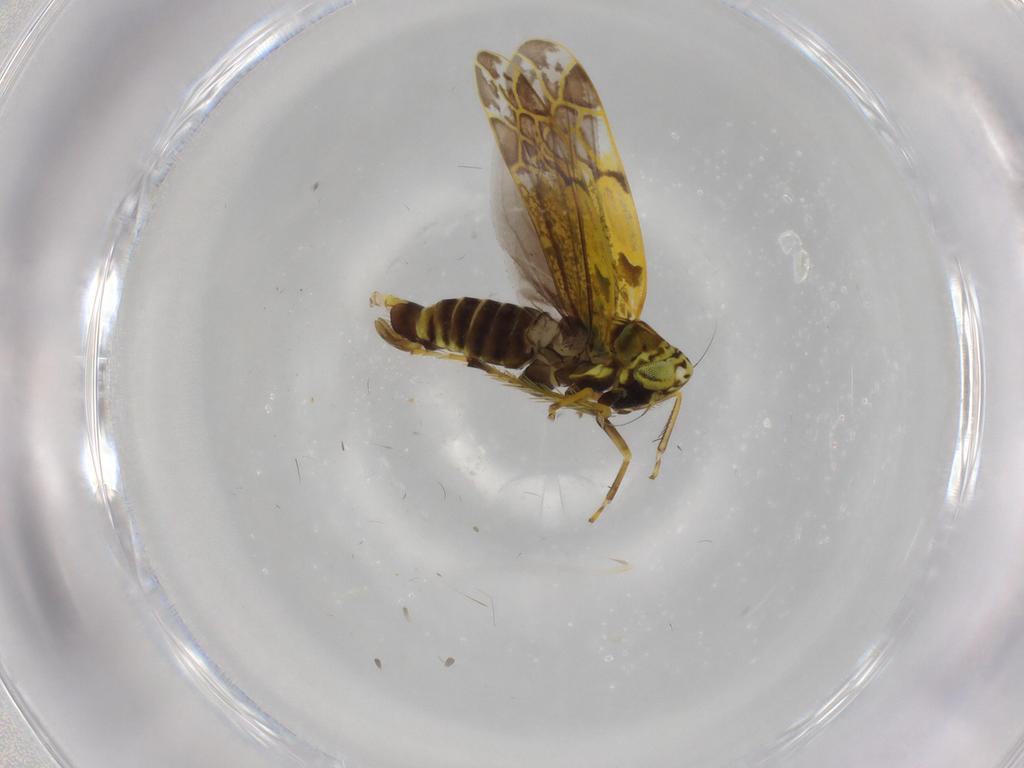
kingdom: Animalia
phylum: Arthropoda
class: Insecta
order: Hemiptera
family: Cicadellidae
